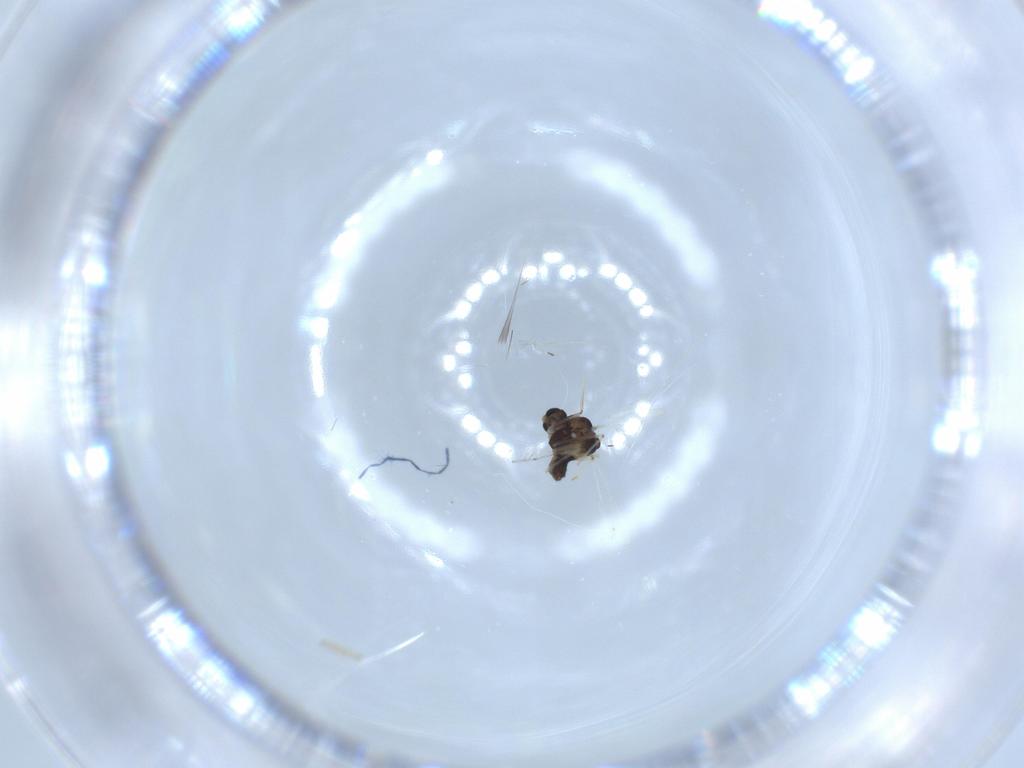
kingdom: Animalia
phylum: Arthropoda
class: Insecta
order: Diptera
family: Chironomidae
